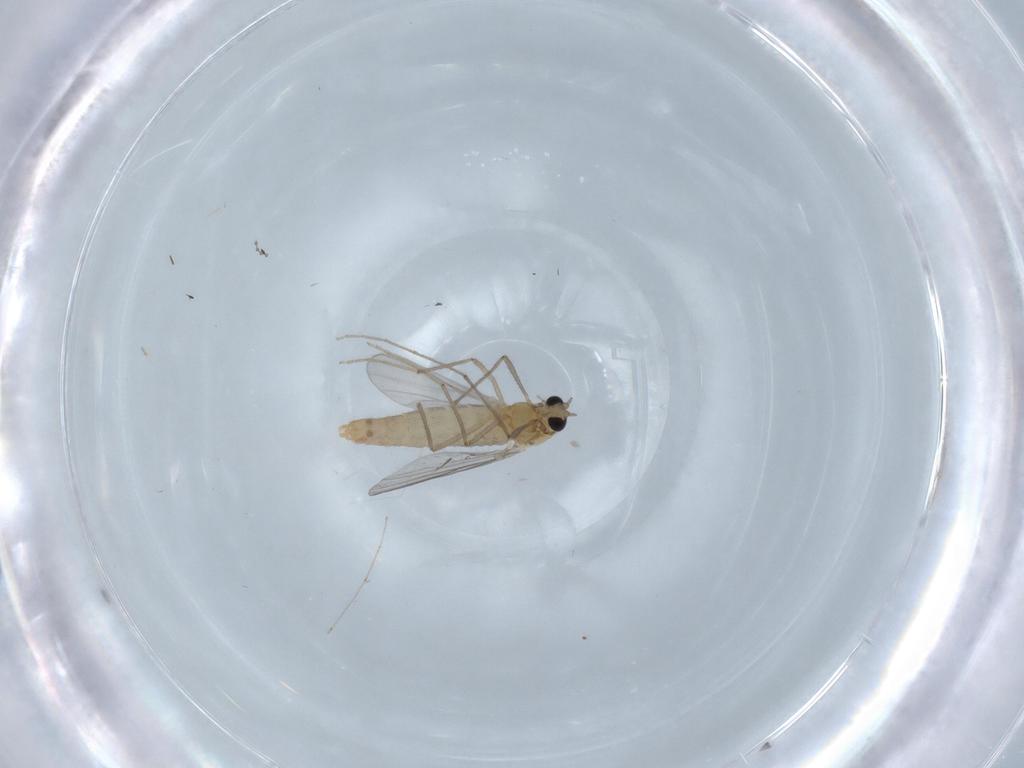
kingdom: Animalia
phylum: Arthropoda
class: Insecta
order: Diptera
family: Chironomidae
